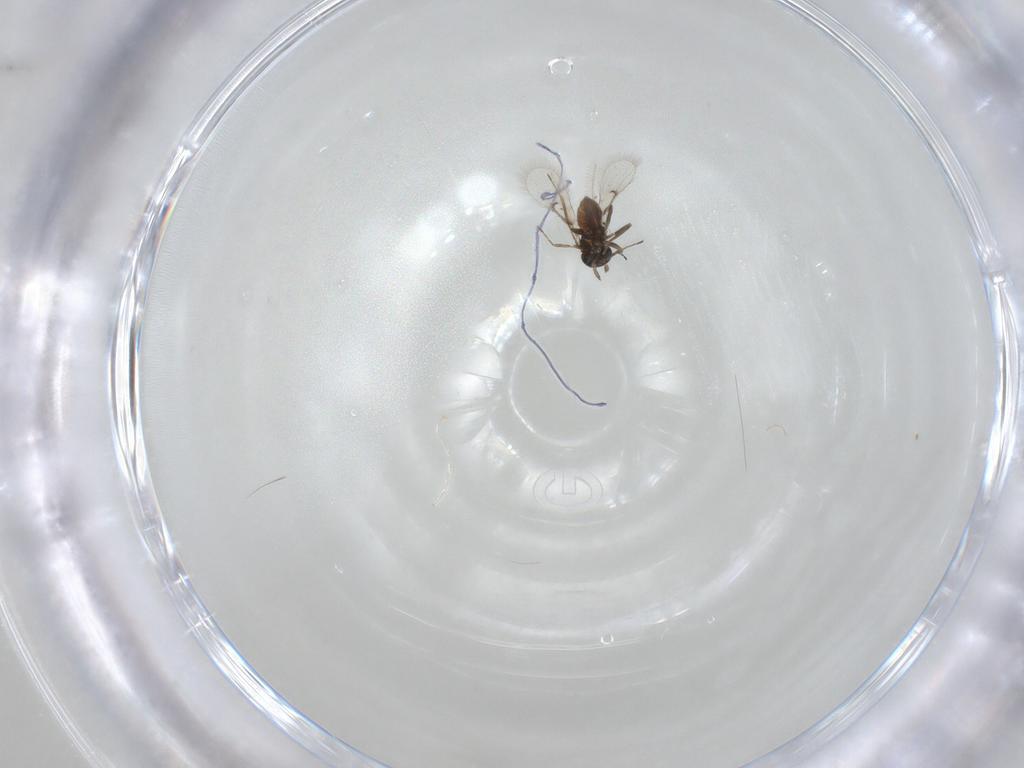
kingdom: Animalia
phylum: Arthropoda
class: Insecta
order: Hymenoptera
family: Trichogrammatidae
